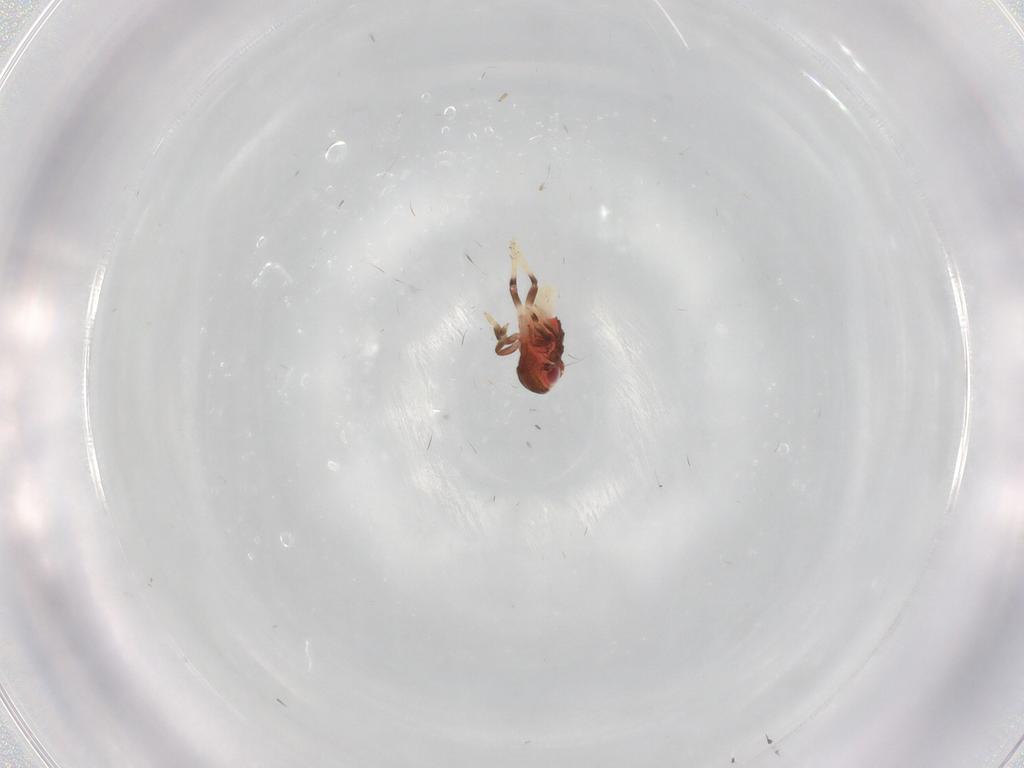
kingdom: Animalia
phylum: Arthropoda
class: Insecta
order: Hemiptera
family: Nogodinidae
